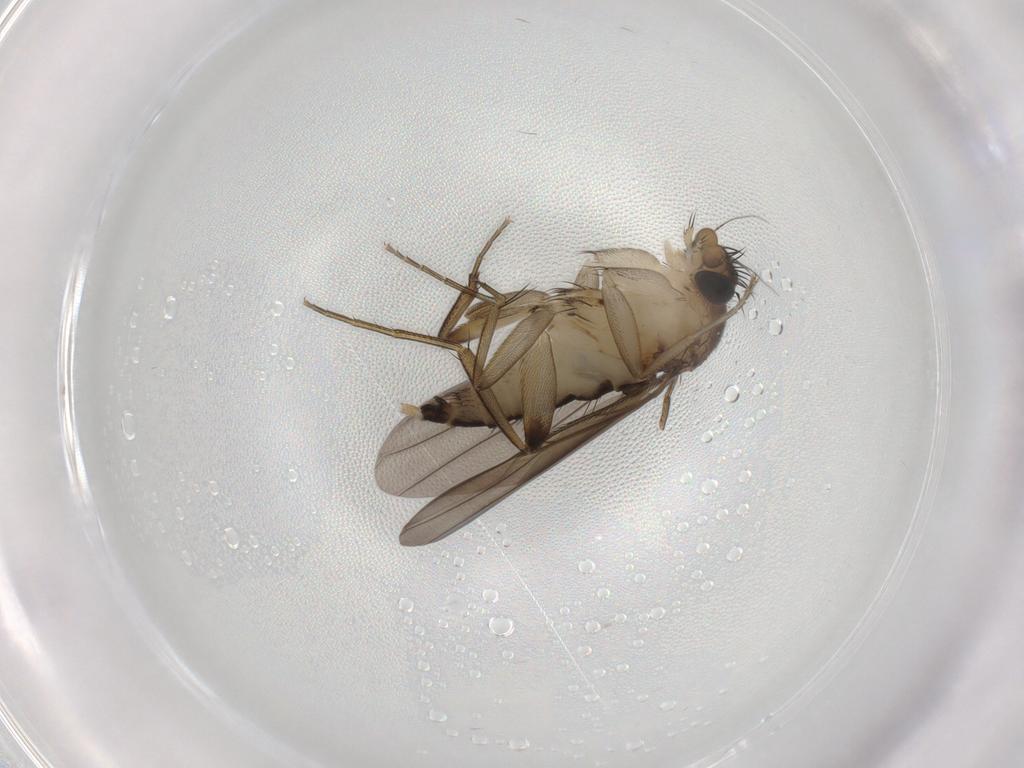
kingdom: Animalia
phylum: Arthropoda
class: Insecta
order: Diptera
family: Phoridae
